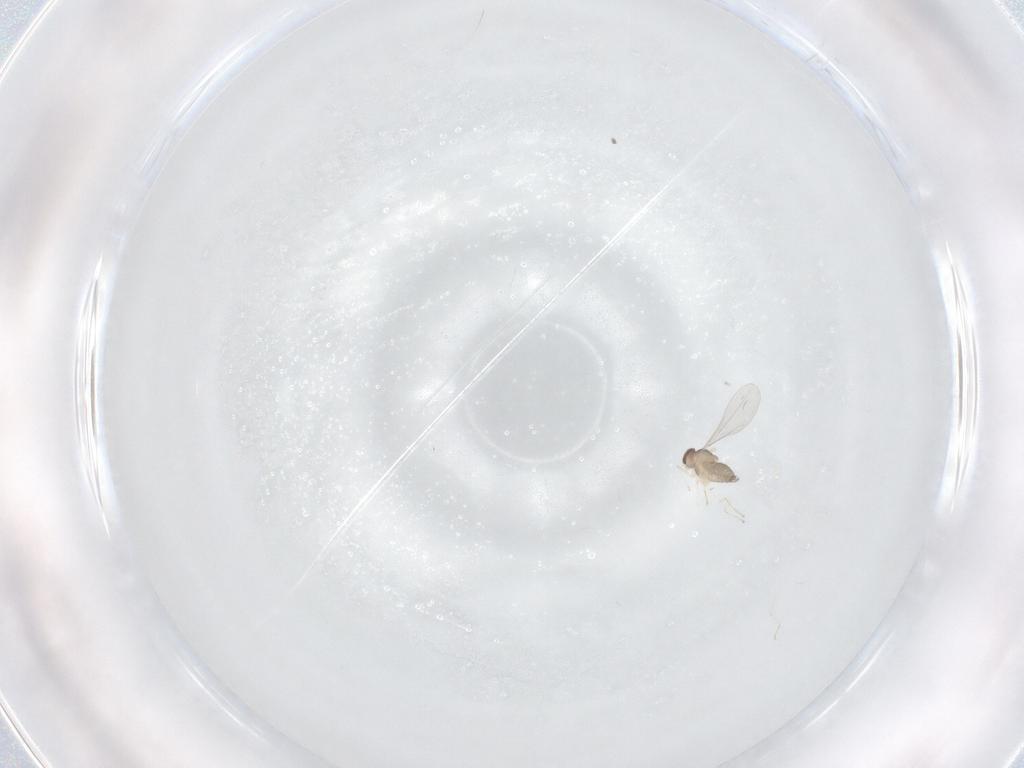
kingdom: Animalia
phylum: Arthropoda
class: Insecta
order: Diptera
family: Cecidomyiidae
